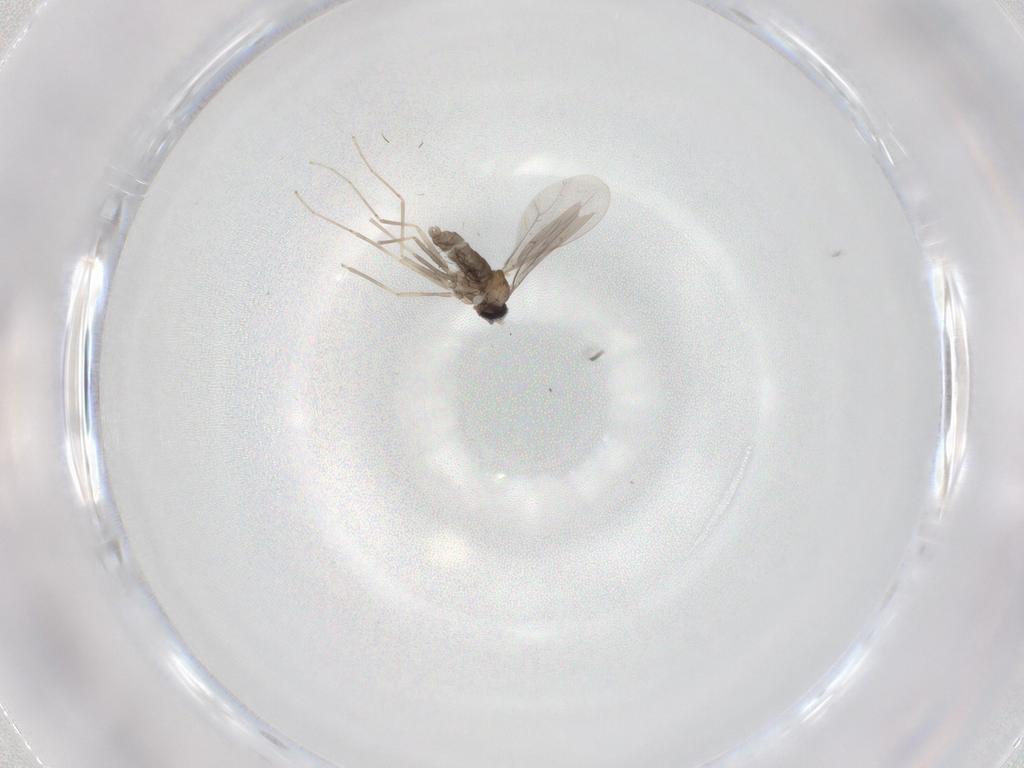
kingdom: Animalia
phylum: Arthropoda
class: Insecta
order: Diptera
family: Cecidomyiidae
